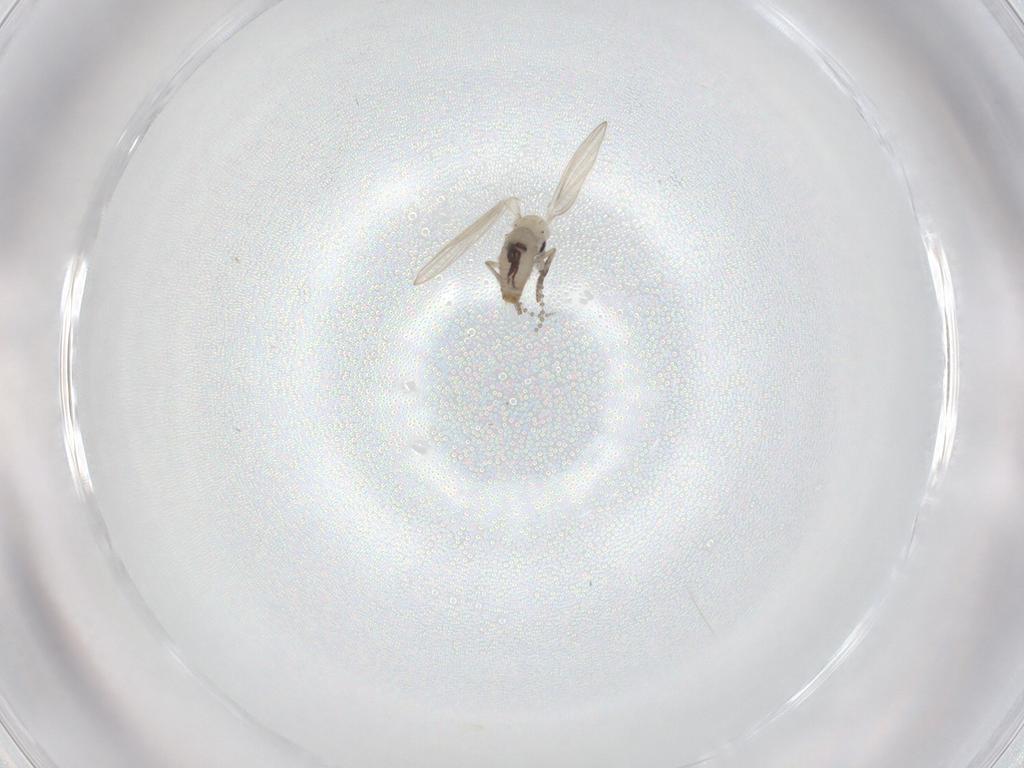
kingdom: Animalia
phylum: Arthropoda
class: Insecta
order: Diptera
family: Psychodidae
